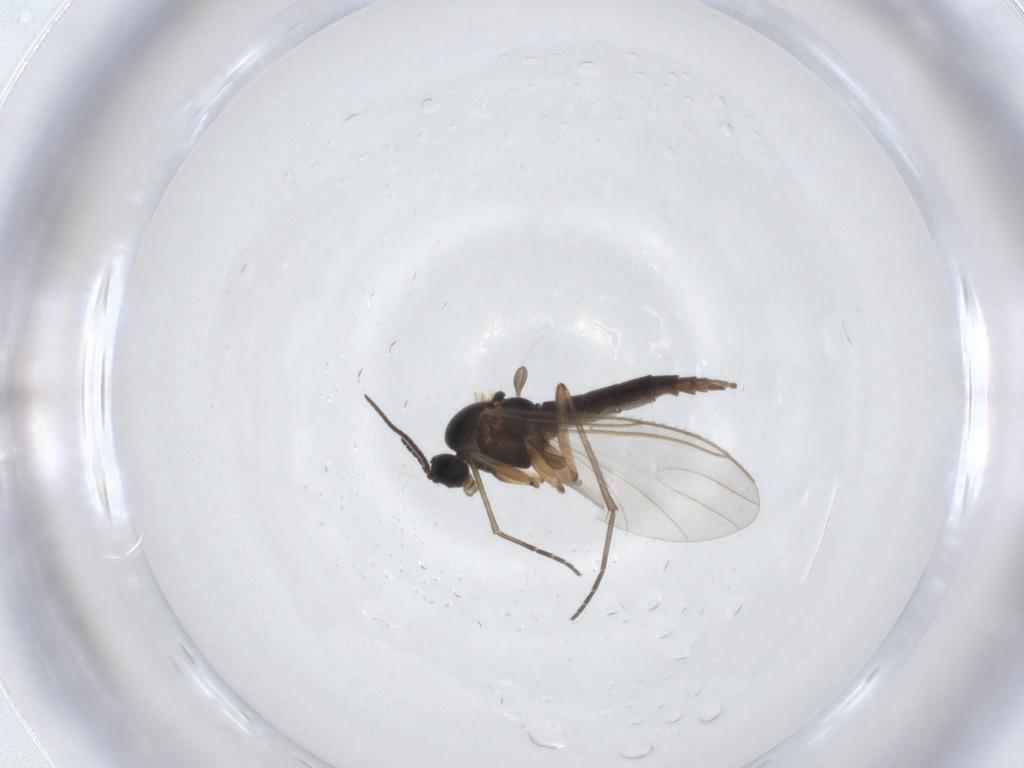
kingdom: Animalia
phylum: Arthropoda
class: Insecta
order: Diptera
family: Sciaridae
